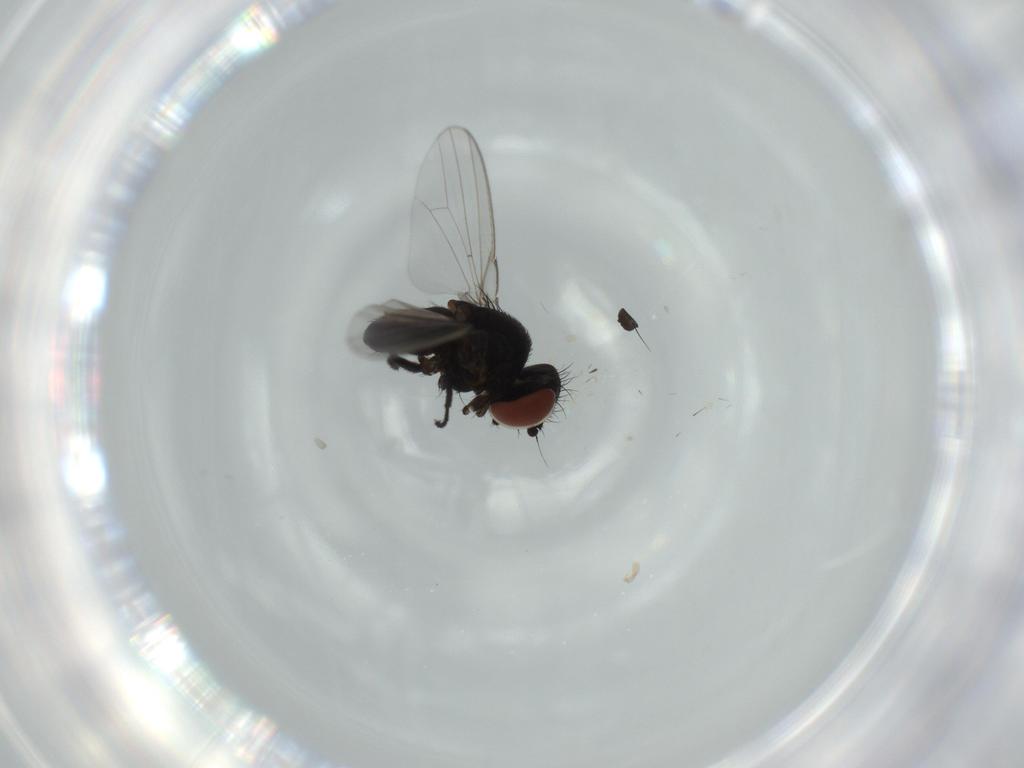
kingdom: Animalia
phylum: Arthropoda
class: Insecta
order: Diptera
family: Milichiidae
